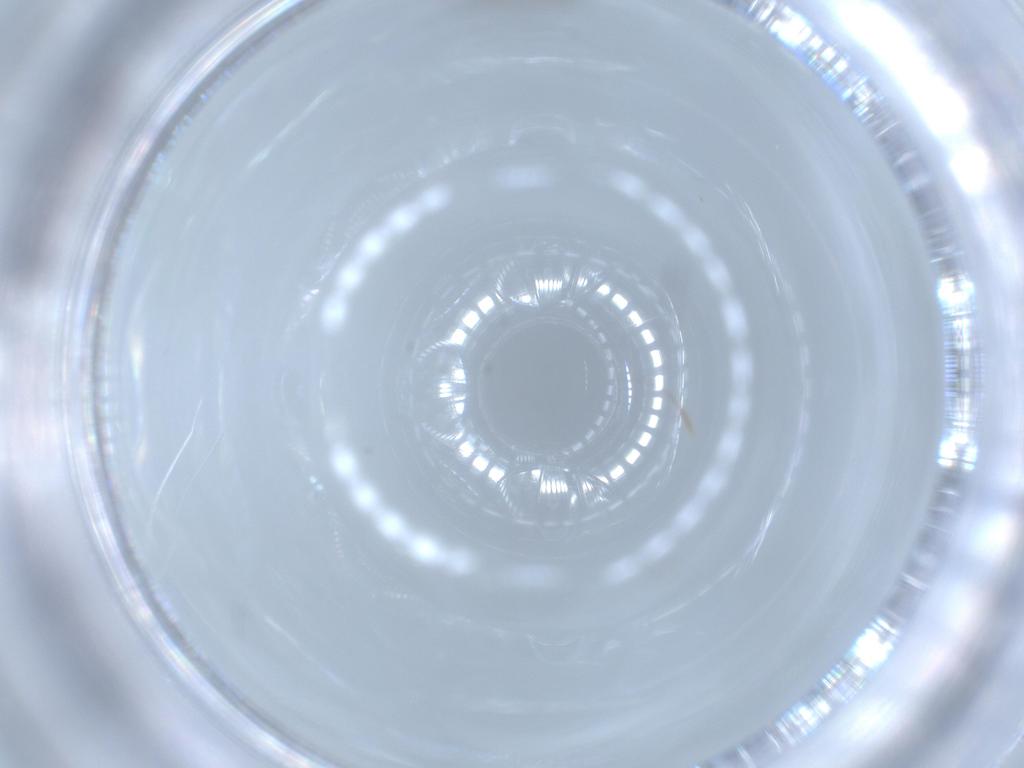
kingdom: Animalia
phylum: Arthropoda
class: Insecta
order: Diptera
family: Chironomidae
